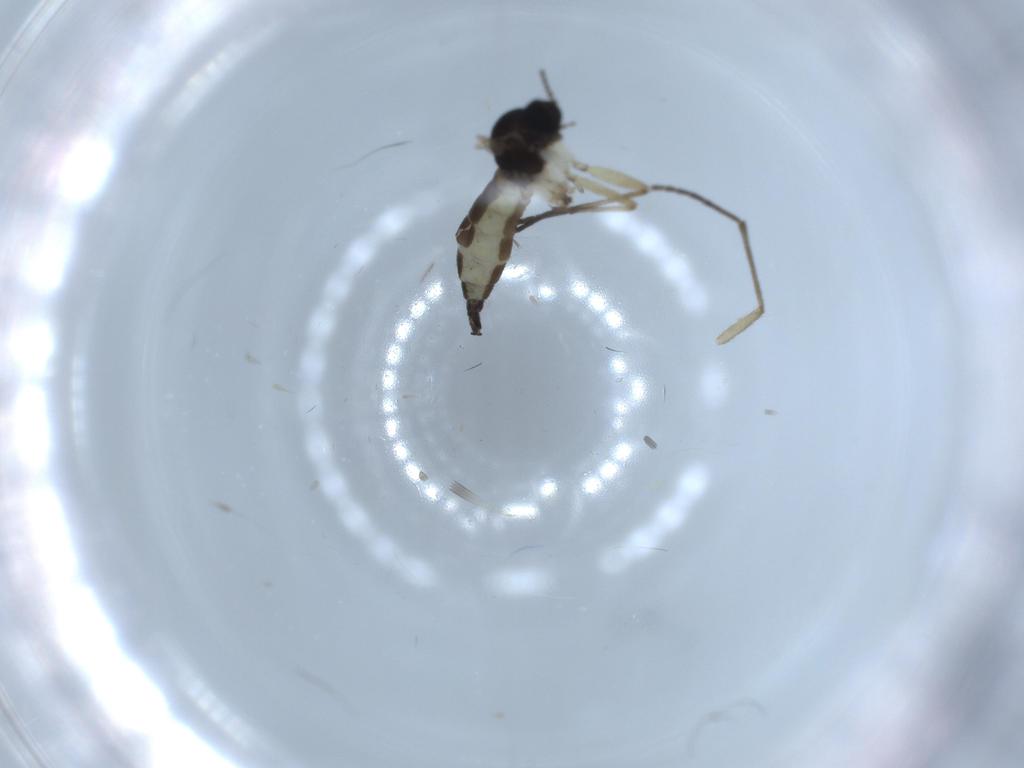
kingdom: Animalia
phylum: Arthropoda
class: Insecta
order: Diptera
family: Sciaridae
